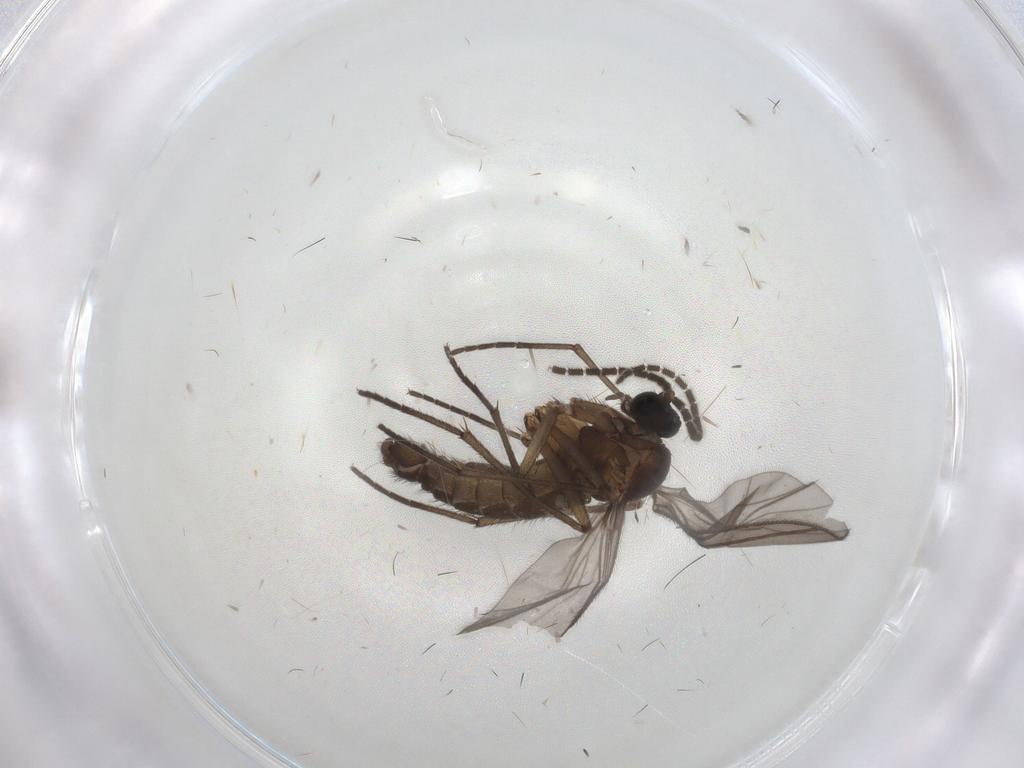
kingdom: Animalia
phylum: Arthropoda
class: Insecta
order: Diptera
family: Sciaridae
